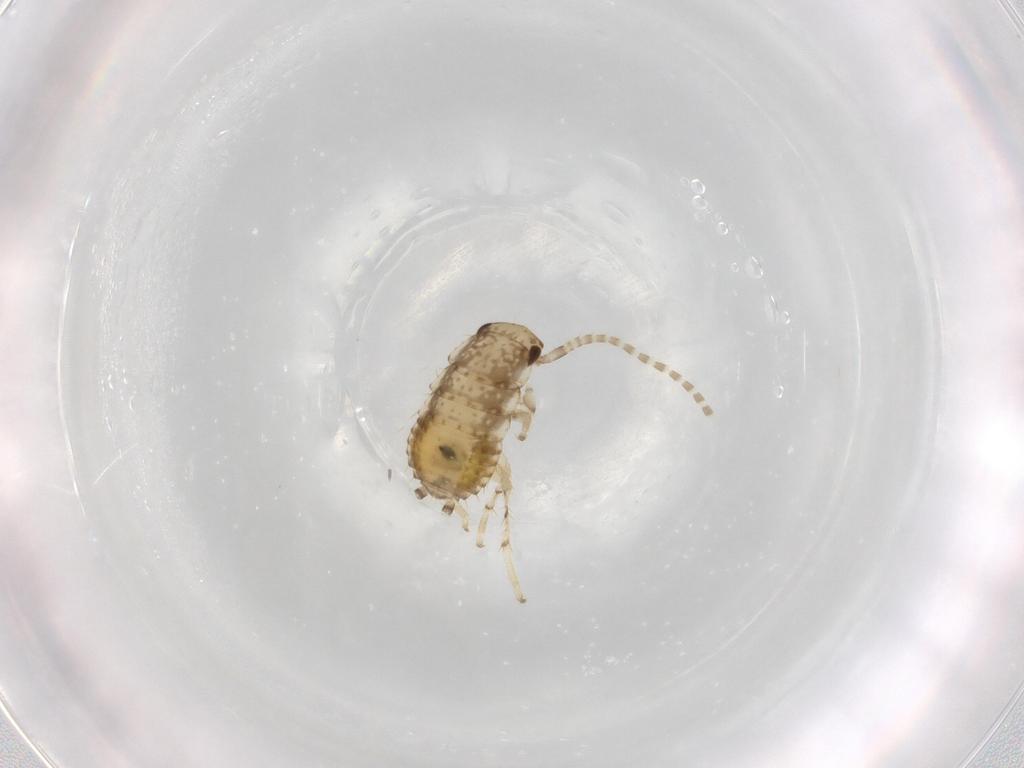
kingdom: Animalia
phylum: Arthropoda
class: Insecta
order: Blattodea
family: Ectobiidae
